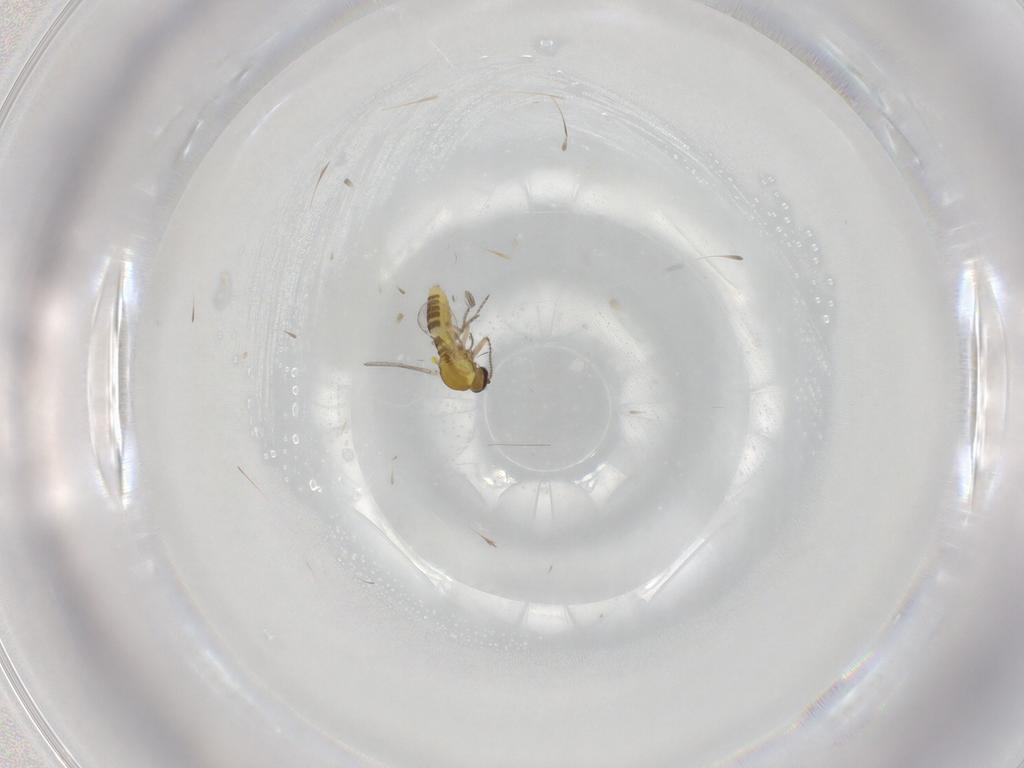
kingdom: Animalia
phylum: Arthropoda
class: Insecta
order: Diptera
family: Ceratopogonidae
